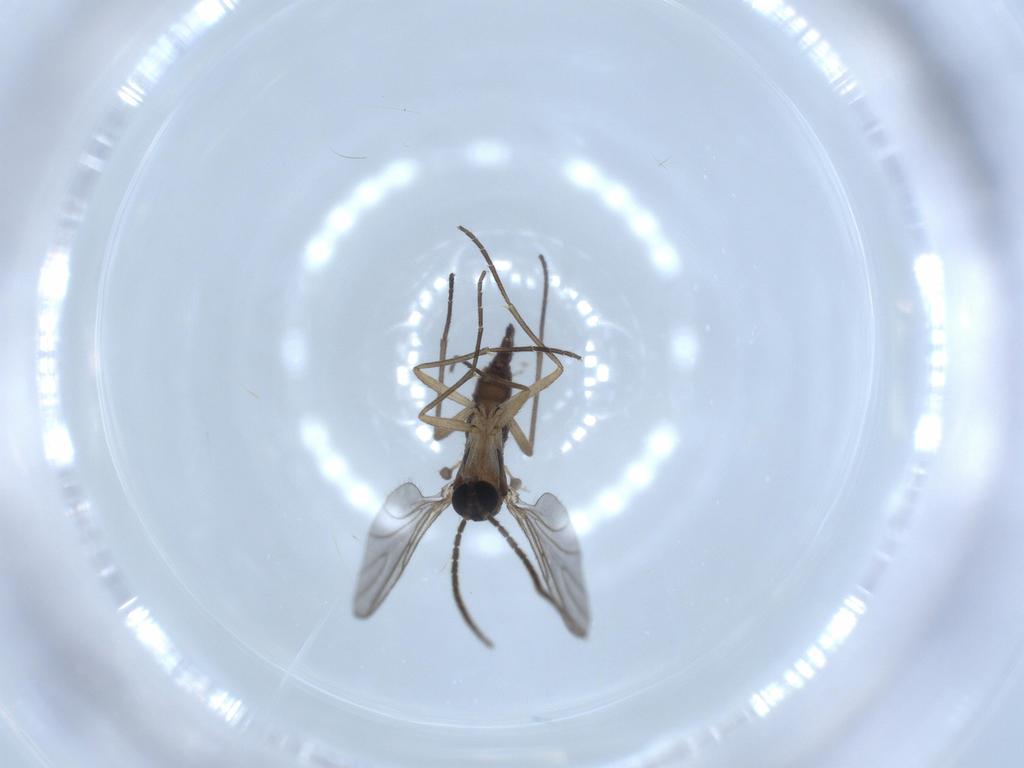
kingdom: Animalia
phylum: Arthropoda
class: Insecta
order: Diptera
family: Sciaridae
